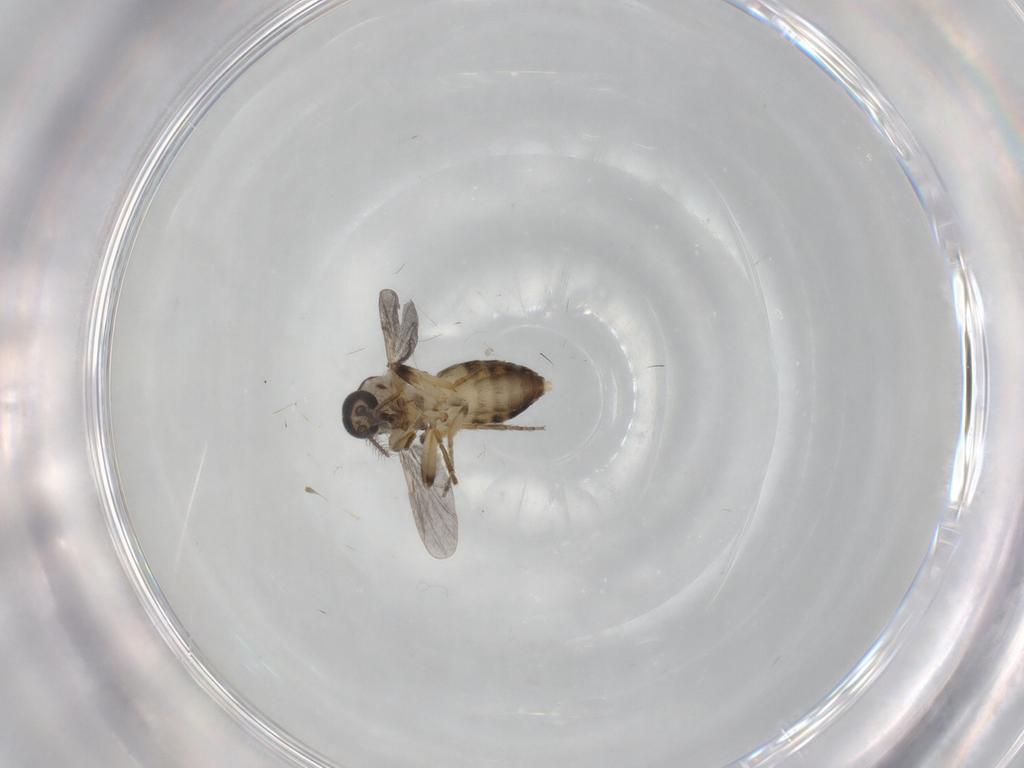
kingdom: Animalia
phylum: Arthropoda
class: Insecta
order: Diptera
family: Ceratopogonidae
